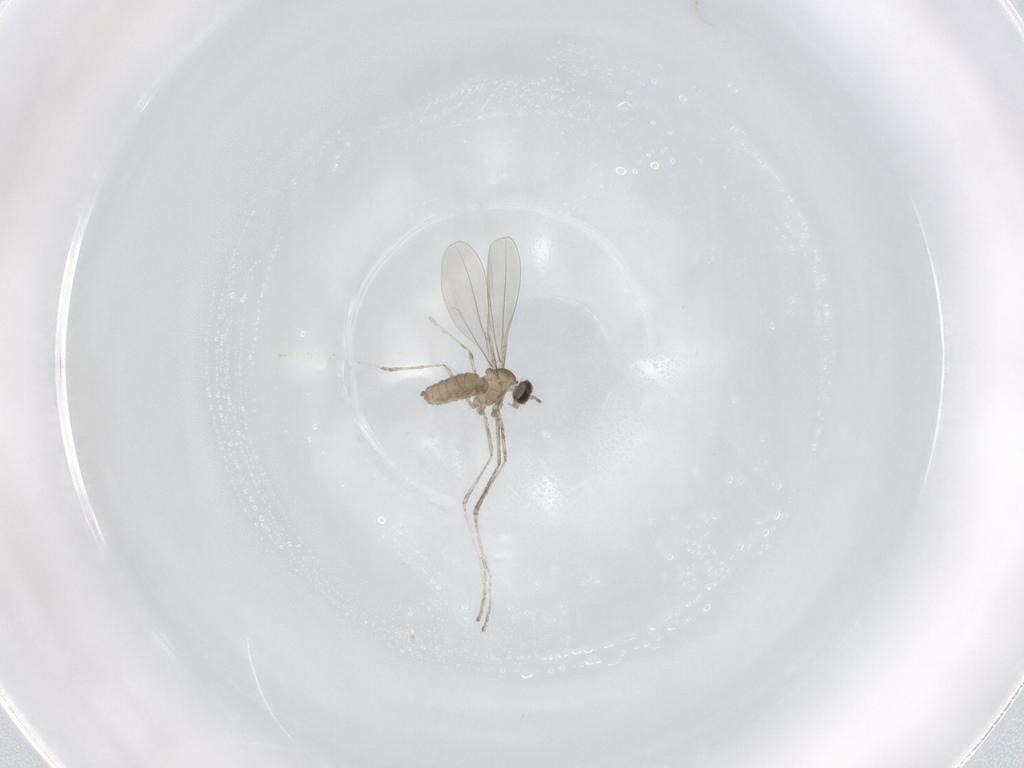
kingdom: Animalia
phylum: Arthropoda
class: Insecta
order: Diptera
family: Cecidomyiidae
